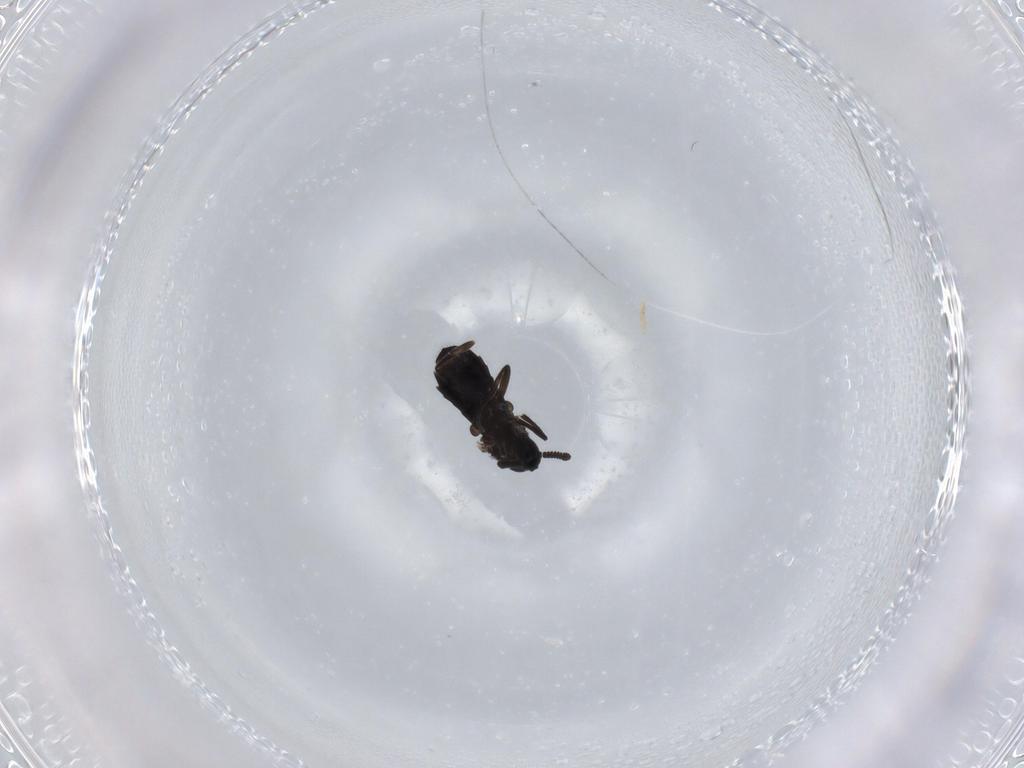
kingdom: Animalia
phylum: Arthropoda
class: Insecta
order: Diptera
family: Scatopsidae
